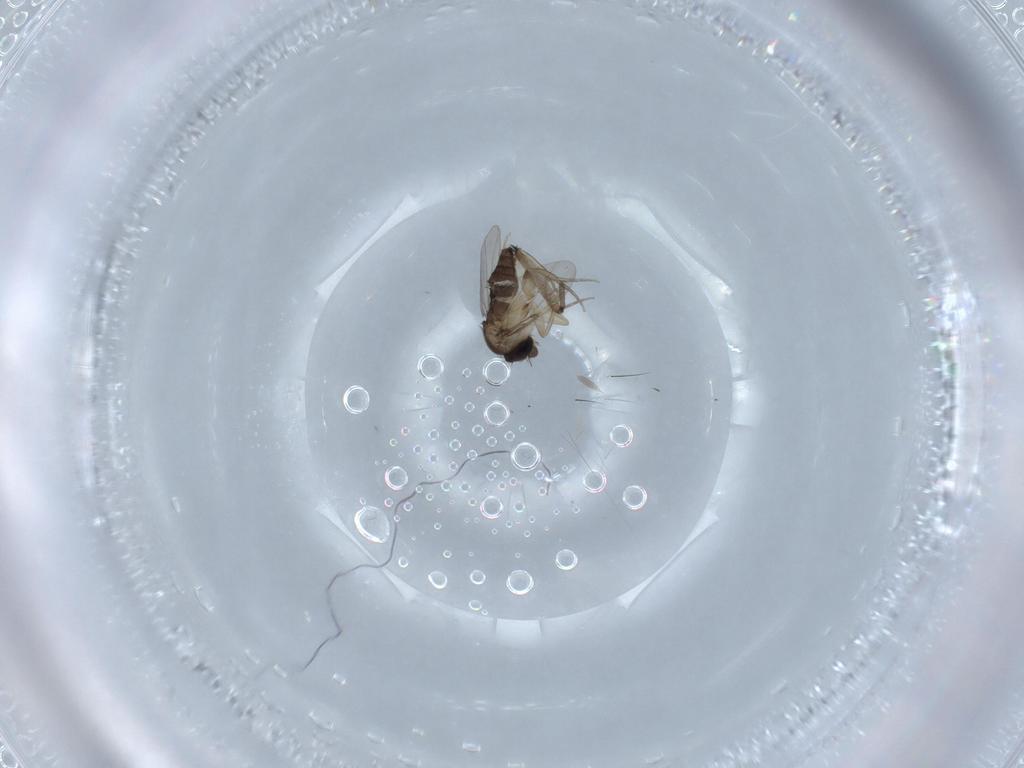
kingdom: Animalia
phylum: Arthropoda
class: Insecta
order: Diptera
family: Phoridae
